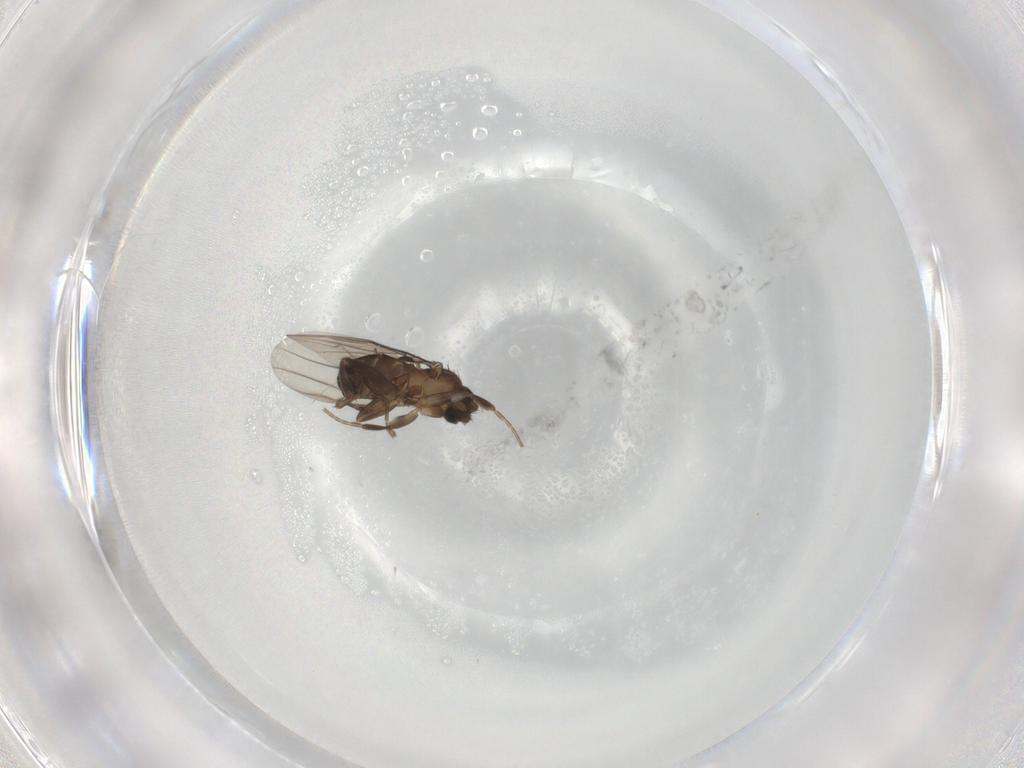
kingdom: Animalia
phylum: Arthropoda
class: Insecta
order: Diptera
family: Phoridae
